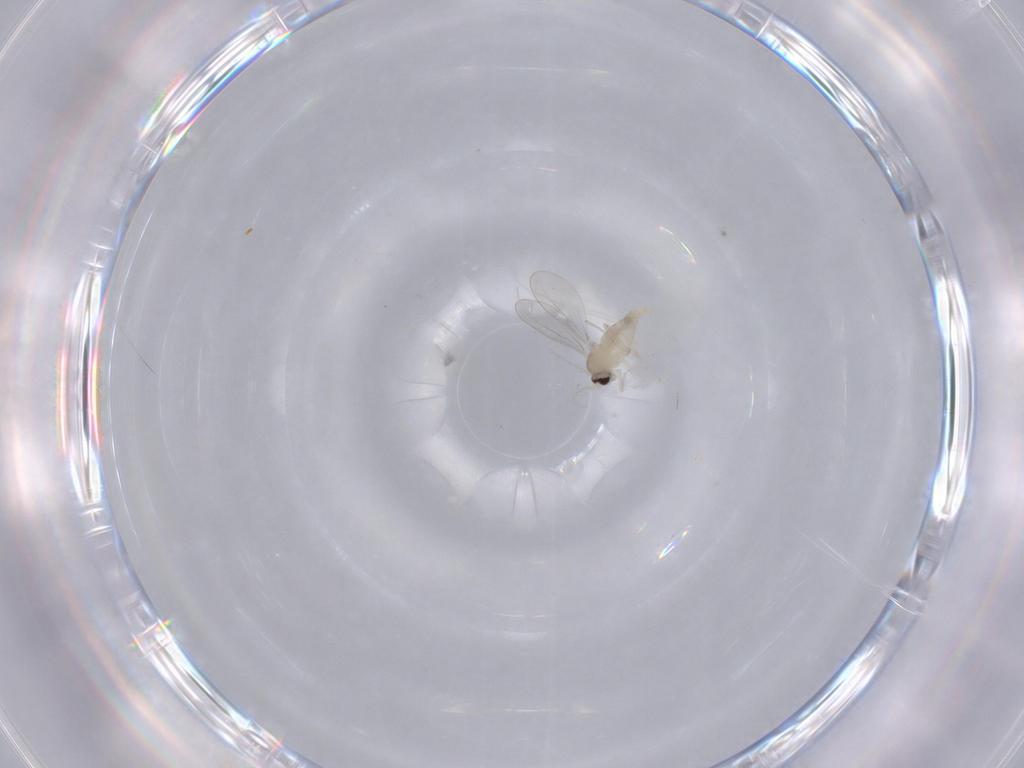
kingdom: Animalia
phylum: Arthropoda
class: Insecta
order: Diptera
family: Cecidomyiidae
